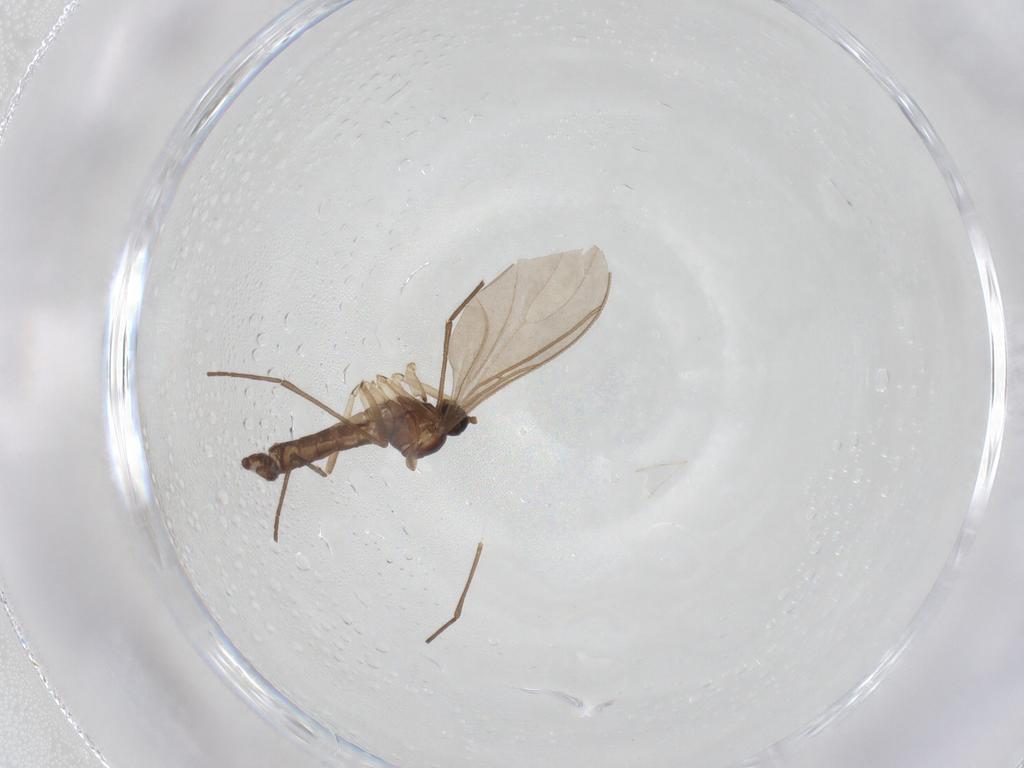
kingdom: Animalia
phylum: Arthropoda
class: Insecta
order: Diptera
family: Sciaridae
